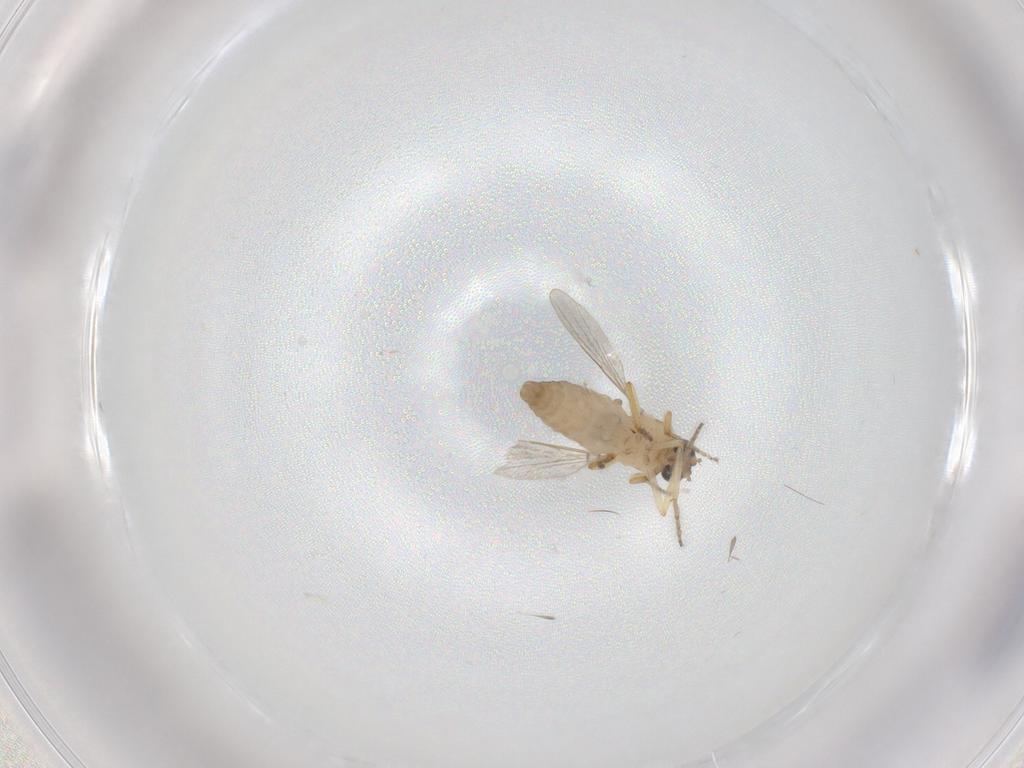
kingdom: Animalia
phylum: Arthropoda
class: Insecta
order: Diptera
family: Ceratopogonidae
